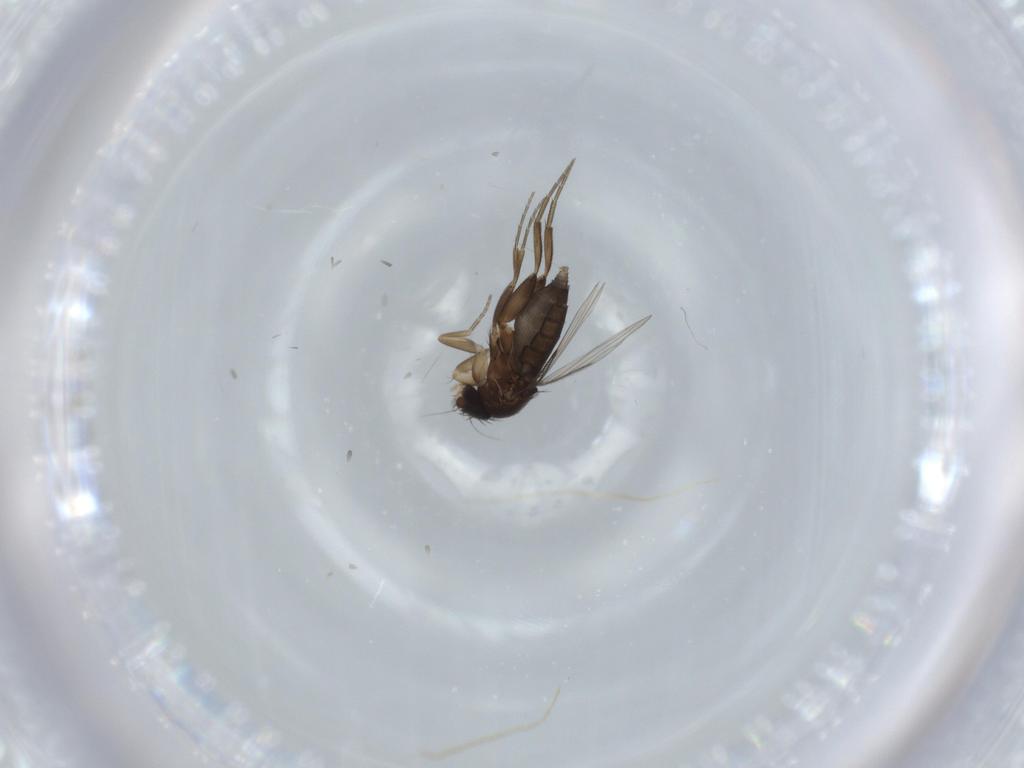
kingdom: Animalia
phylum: Arthropoda
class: Insecta
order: Diptera
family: Phoridae
